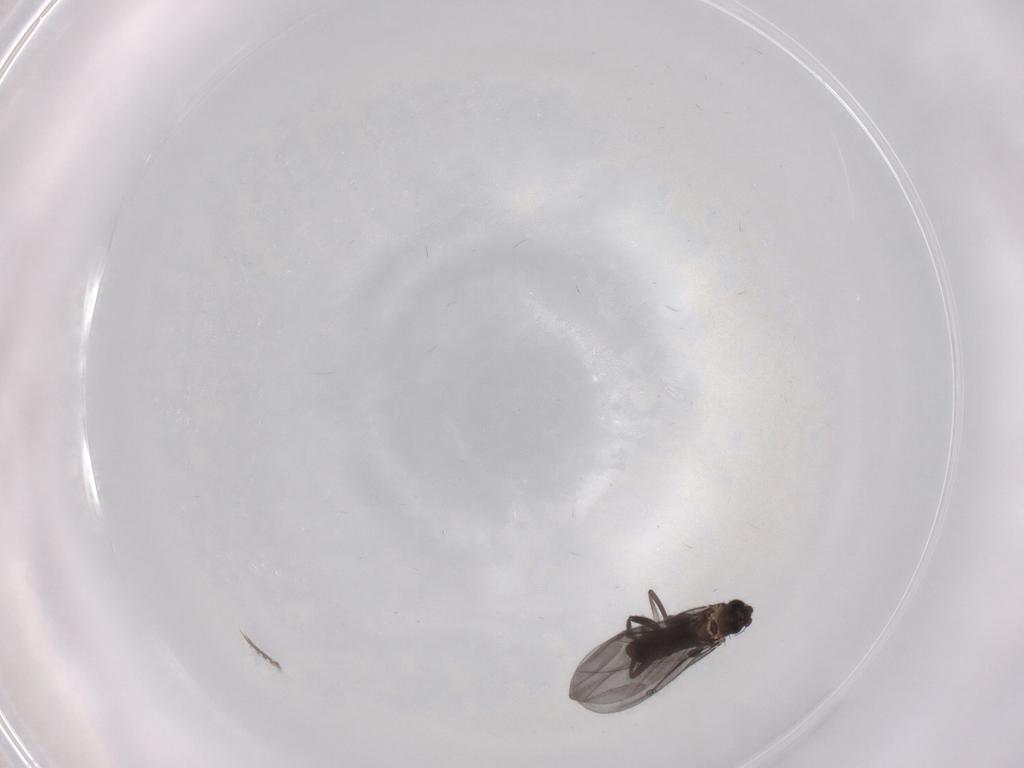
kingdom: Animalia
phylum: Arthropoda
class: Insecta
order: Diptera
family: Phoridae
